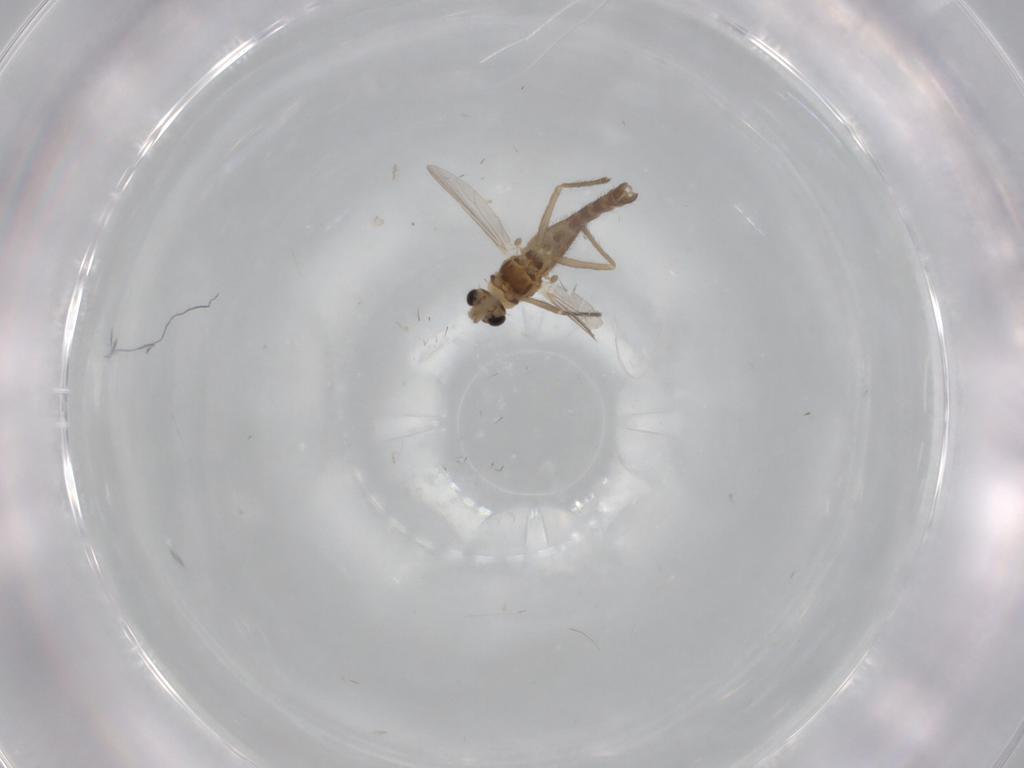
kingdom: Animalia
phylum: Arthropoda
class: Insecta
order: Diptera
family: Chironomidae
